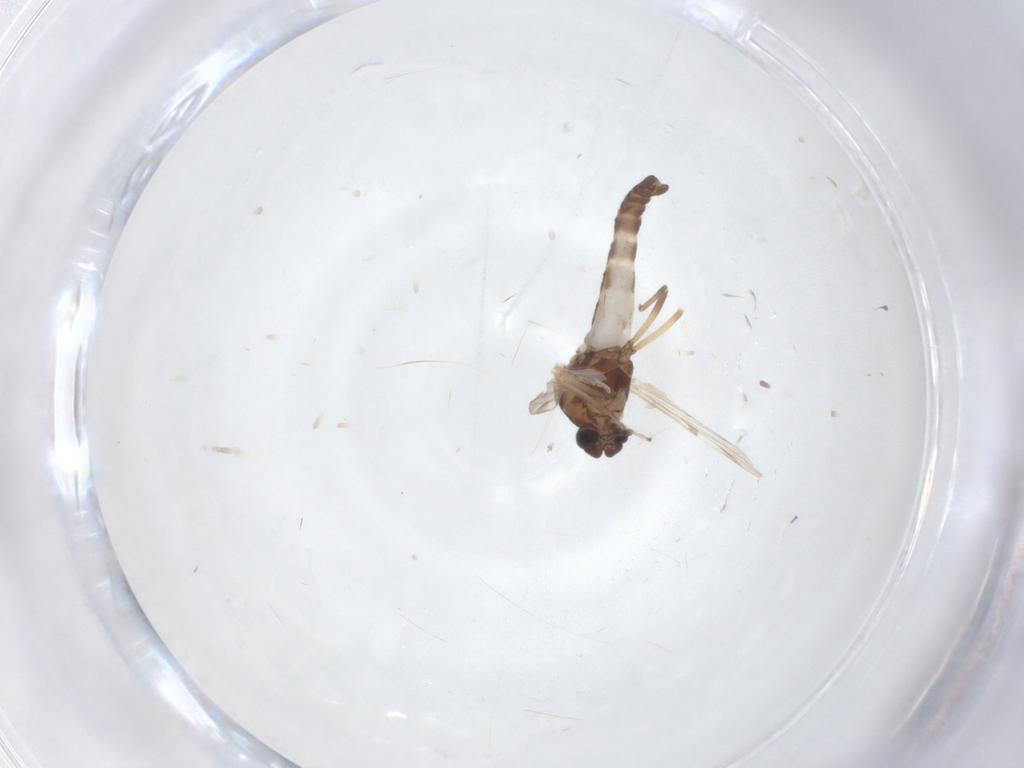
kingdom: Animalia
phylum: Arthropoda
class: Insecta
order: Diptera
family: Ceratopogonidae
